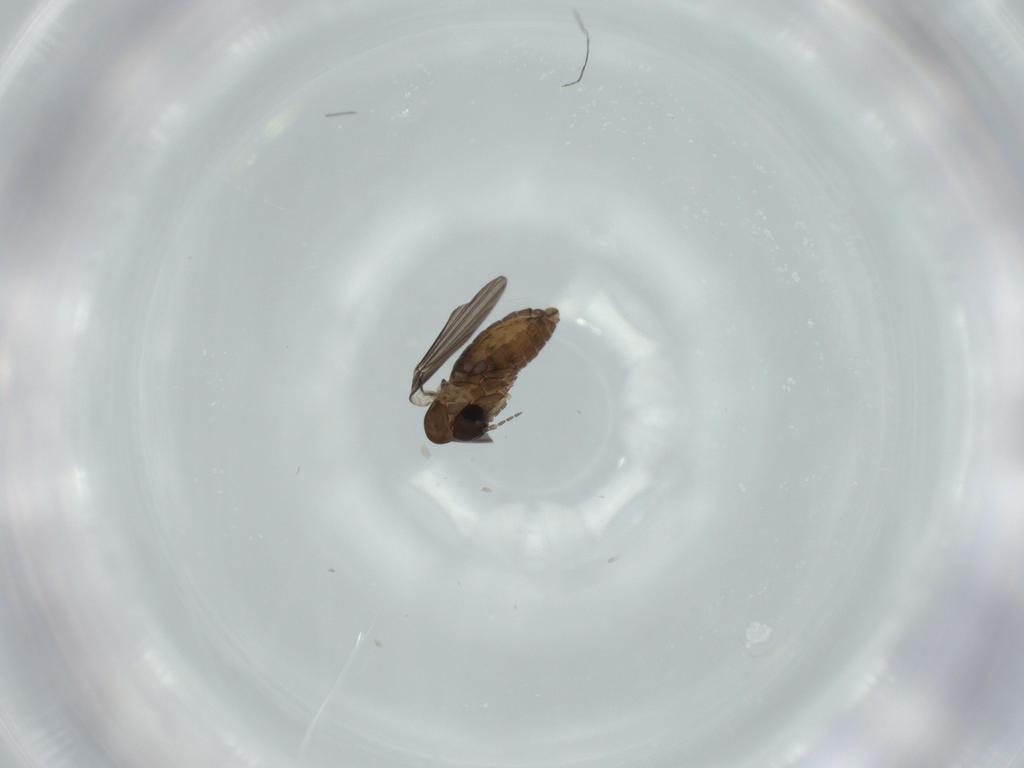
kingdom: Animalia
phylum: Arthropoda
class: Insecta
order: Diptera
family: Psychodidae
